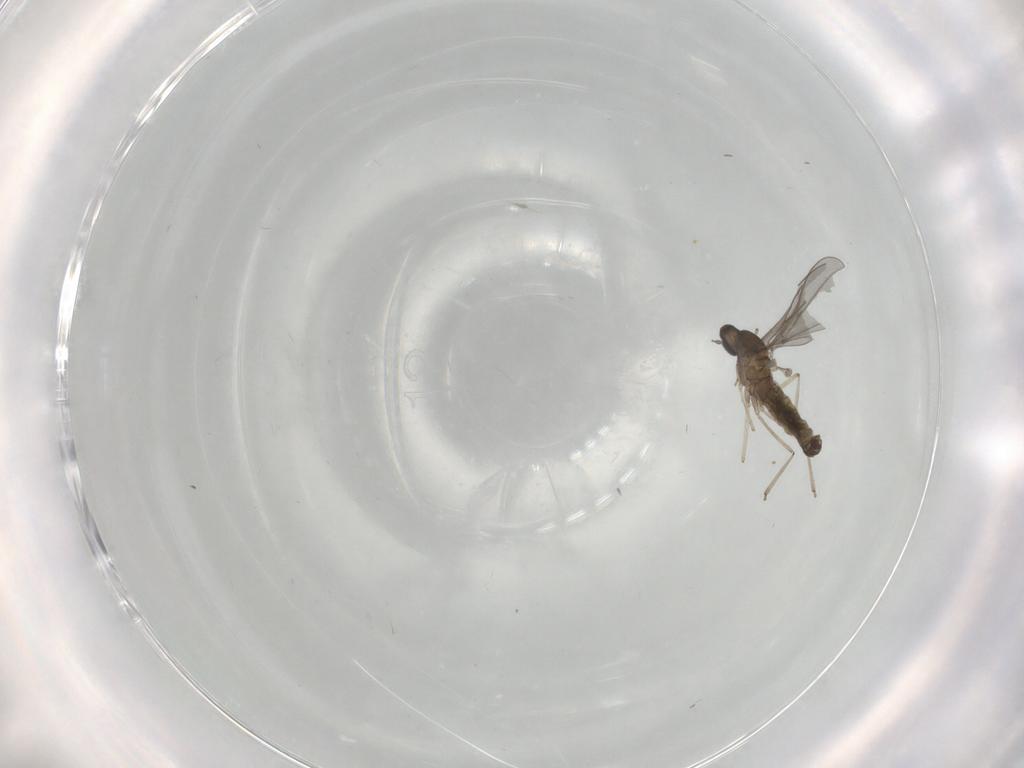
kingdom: Animalia
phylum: Arthropoda
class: Insecta
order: Diptera
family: Cecidomyiidae
